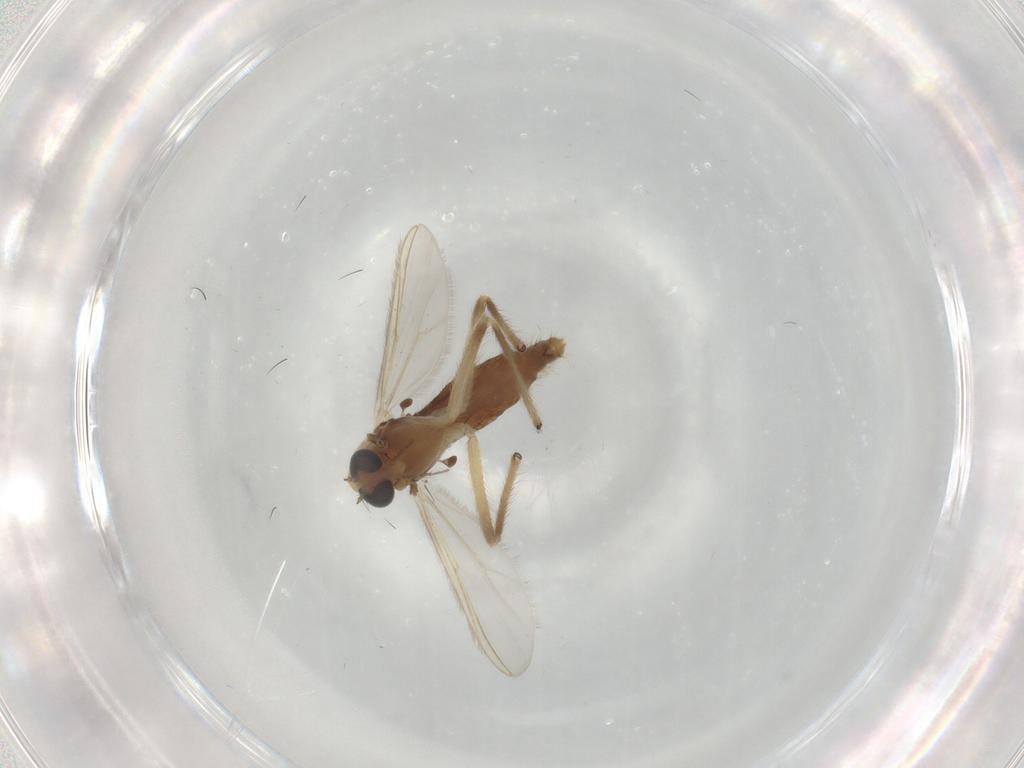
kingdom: Animalia
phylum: Arthropoda
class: Insecta
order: Diptera
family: Chironomidae
